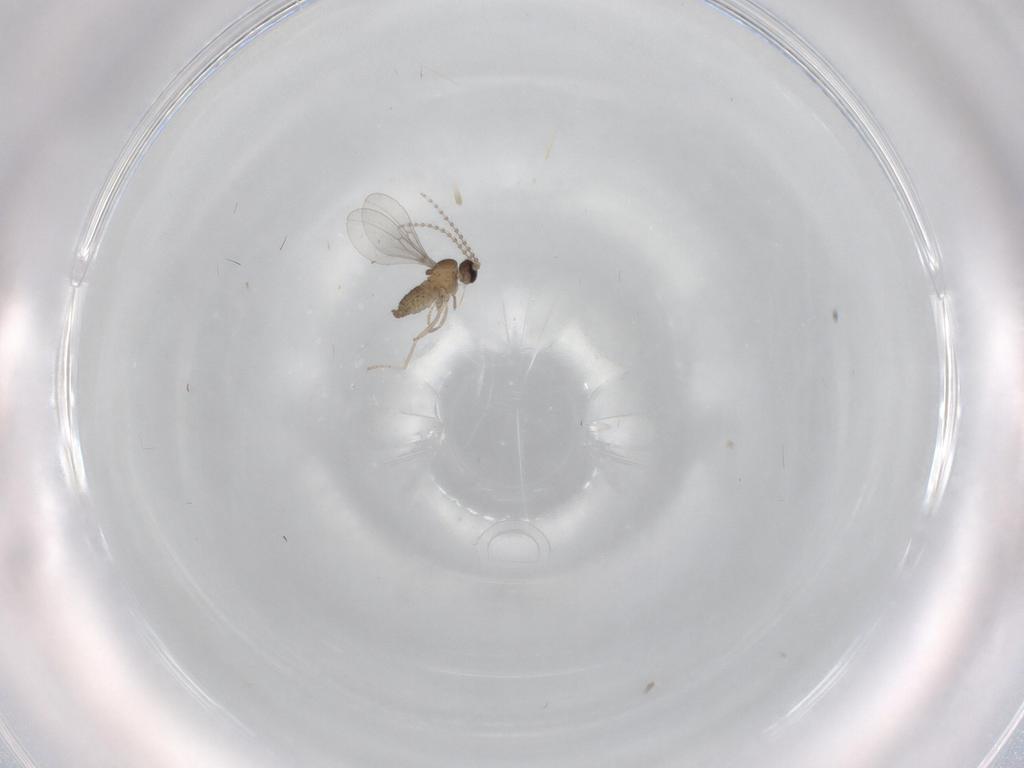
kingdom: Animalia
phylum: Arthropoda
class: Insecta
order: Diptera
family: Cecidomyiidae
